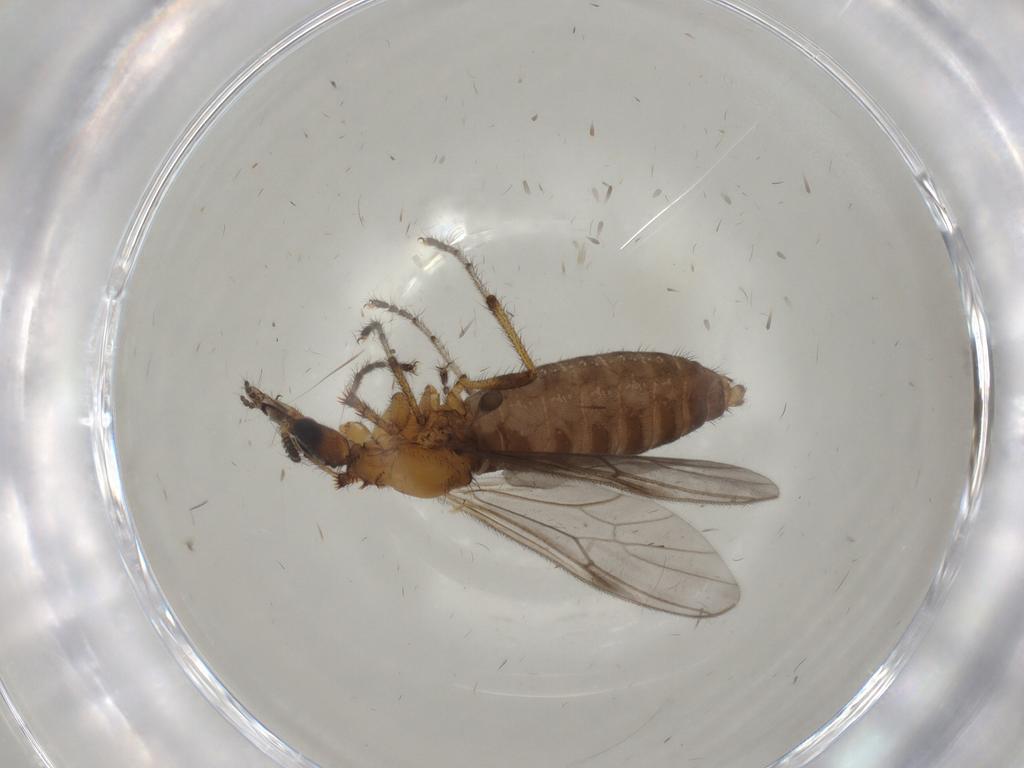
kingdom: Animalia
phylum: Arthropoda
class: Insecta
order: Diptera
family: Bibionidae
